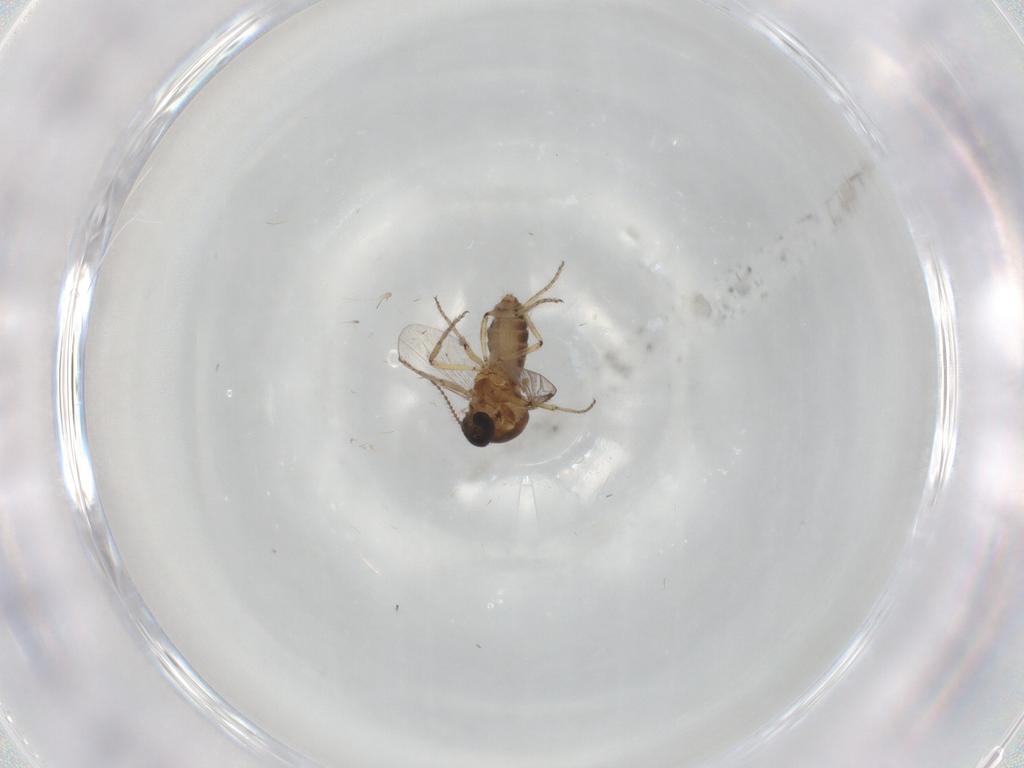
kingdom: Animalia
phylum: Arthropoda
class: Insecta
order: Diptera
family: Ceratopogonidae
